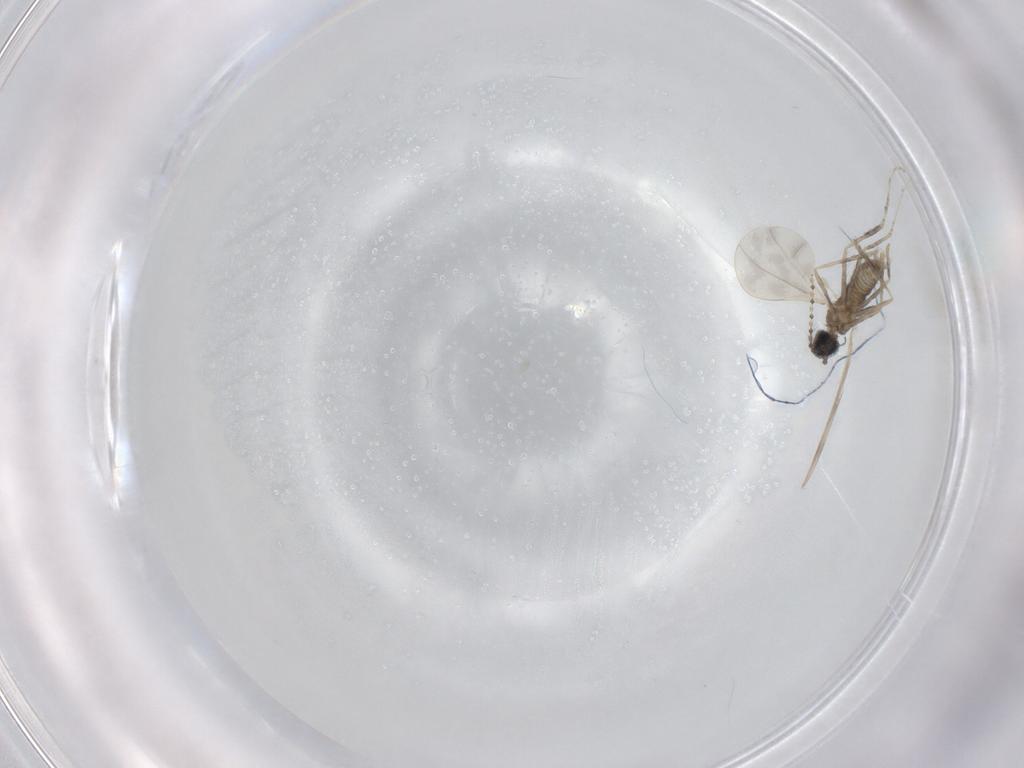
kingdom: Animalia
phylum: Arthropoda
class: Insecta
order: Diptera
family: Cecidomyiidae
